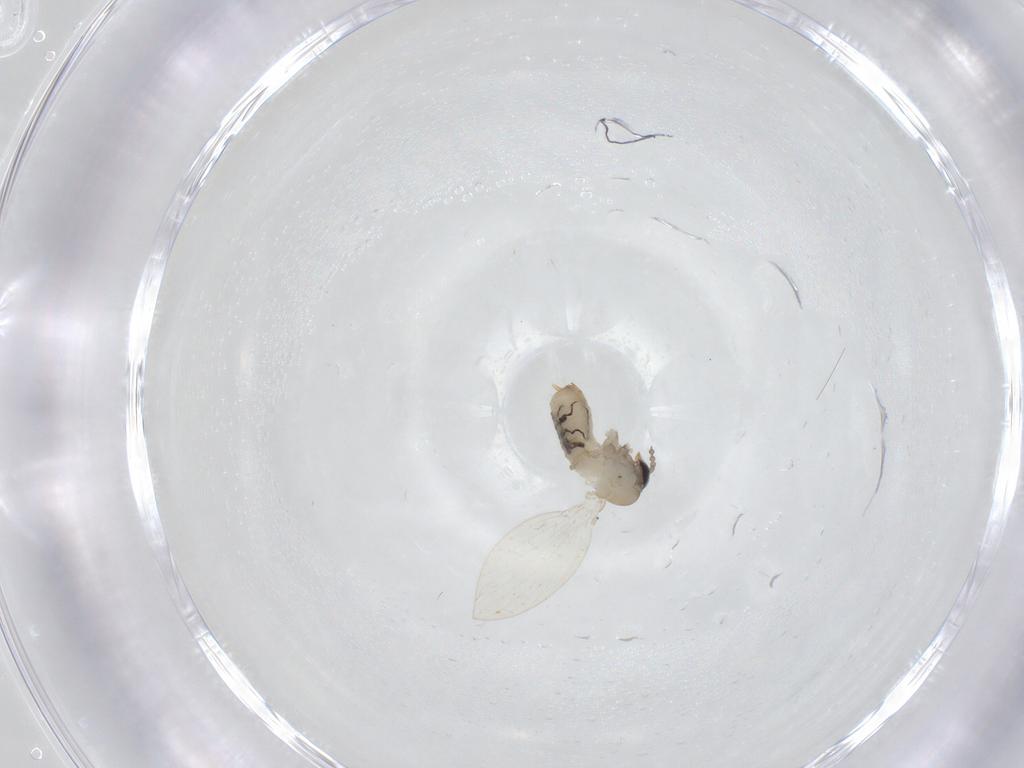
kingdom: Animalia
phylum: Arthropoda
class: Insecta
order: Diptera
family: Psychodidae
